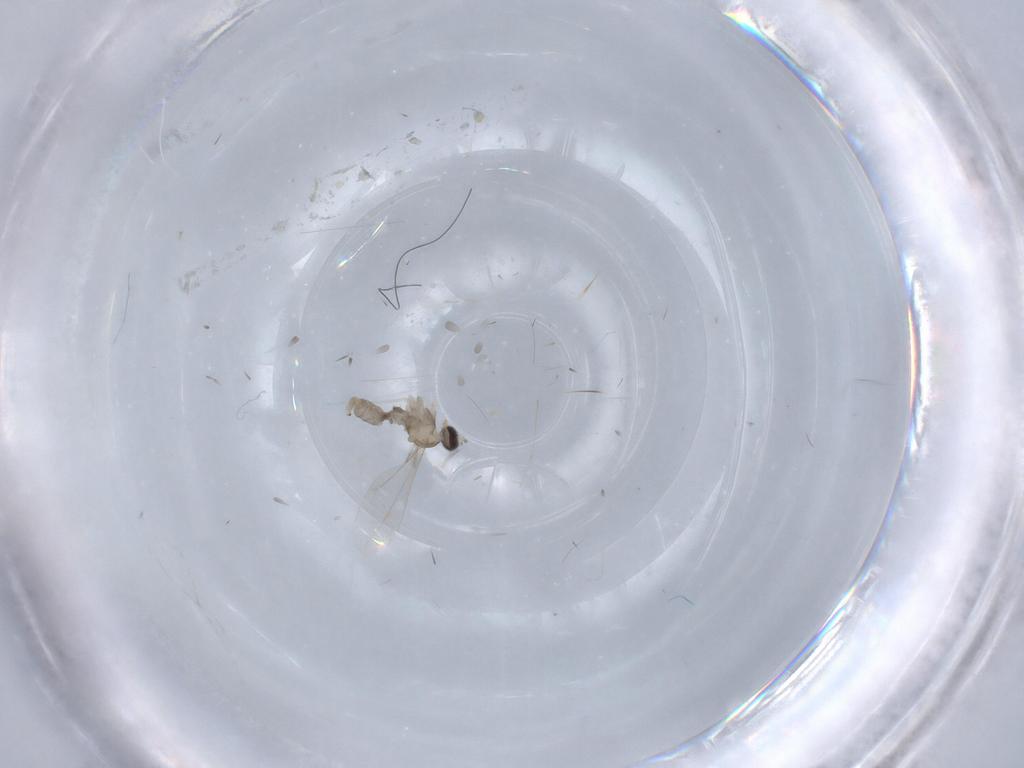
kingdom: Animalia
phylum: Arthropoda
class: Insecta
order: Diptera
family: Cecidomyiidae
